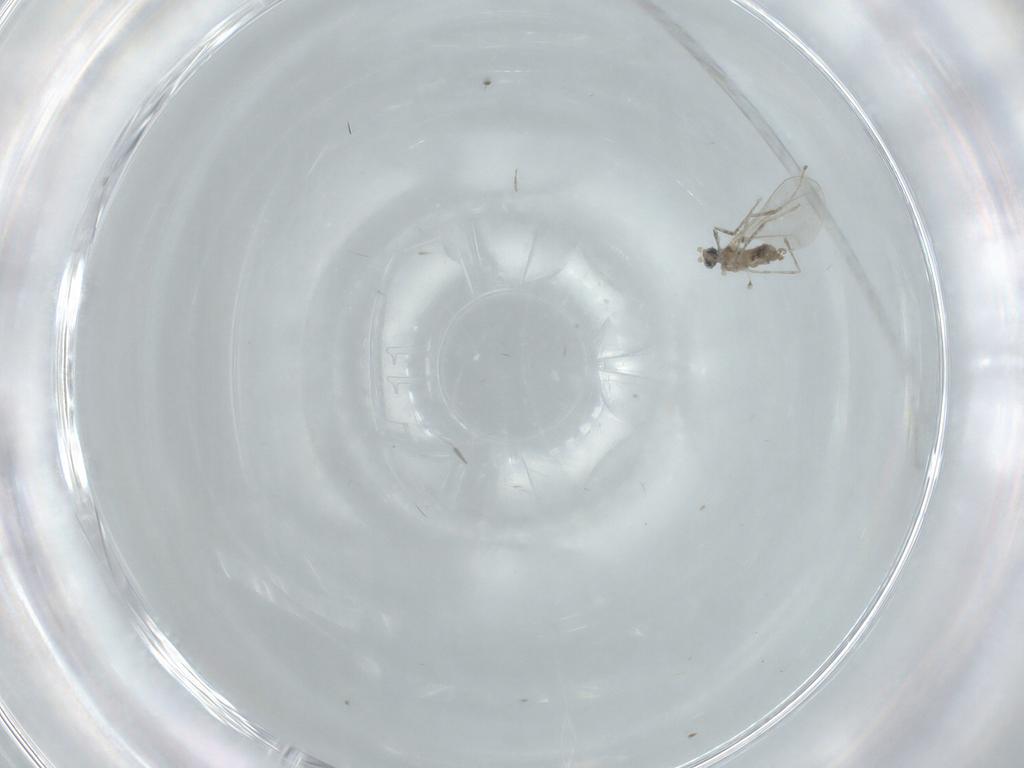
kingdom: Animalia
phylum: Arthropoda
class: Insecta
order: Diptera
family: Cecidomyiidae
